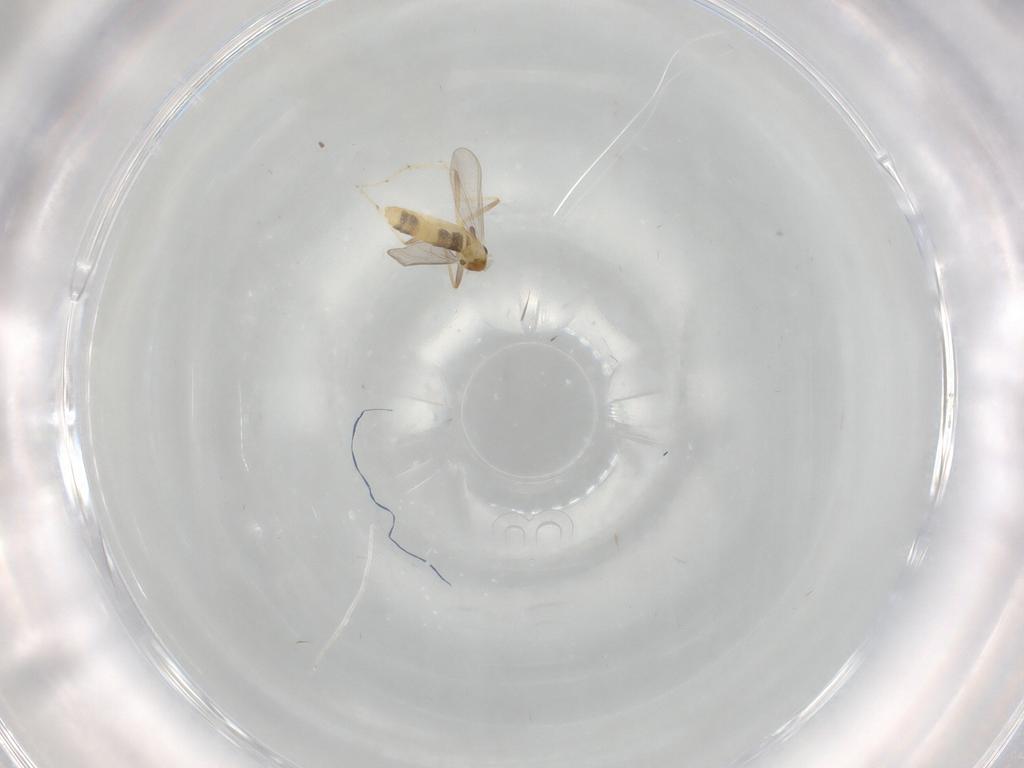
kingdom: Animalia
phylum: Arthropoda
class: Insecta
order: Diptera
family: Chironomidae
